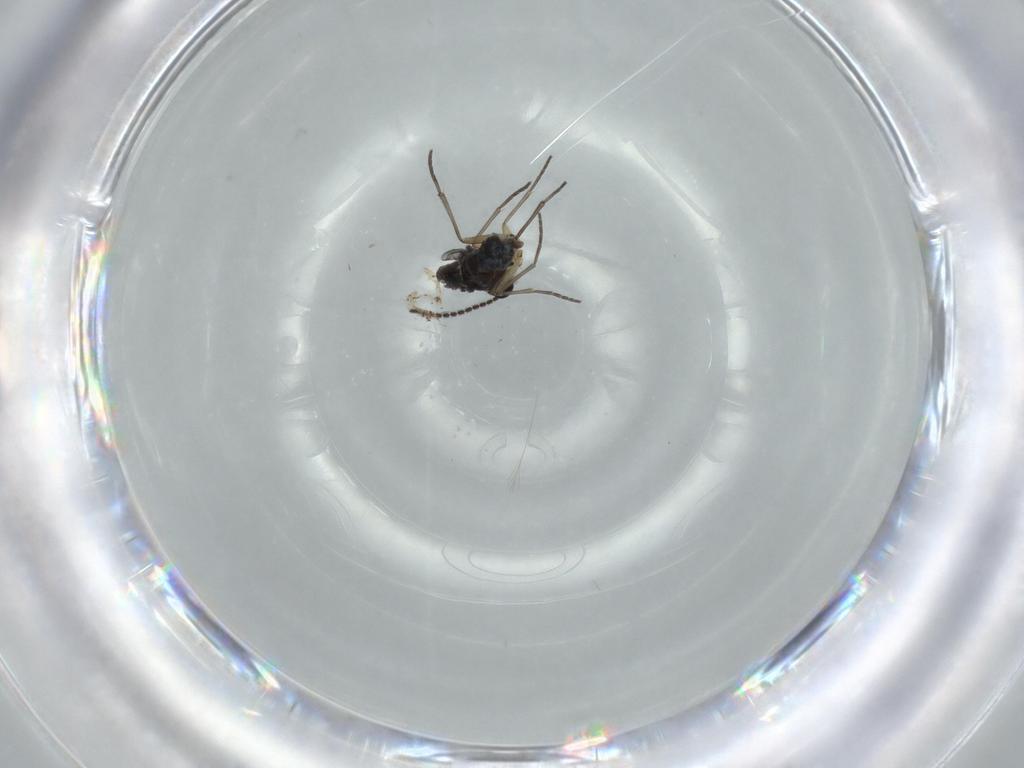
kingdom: Animalia
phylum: Arthropoda
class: Insecta
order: Diptera
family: Sciaridae
